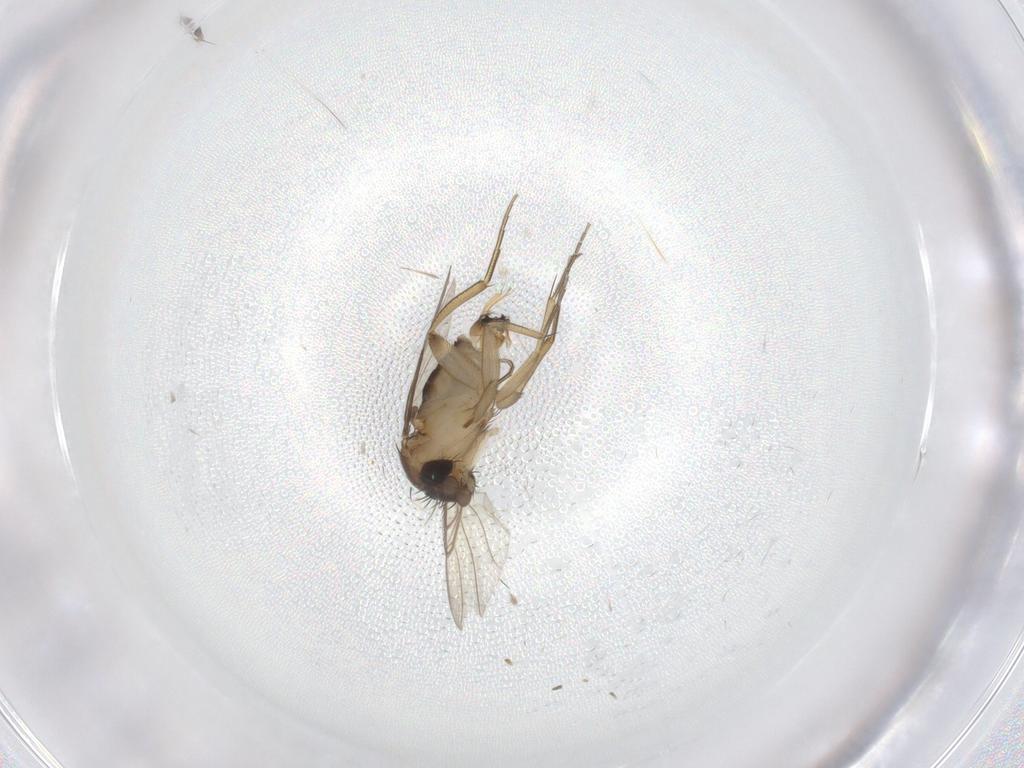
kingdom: Animalia
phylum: Arthropoda
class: Insecta
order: Diptera
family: Phoridae
